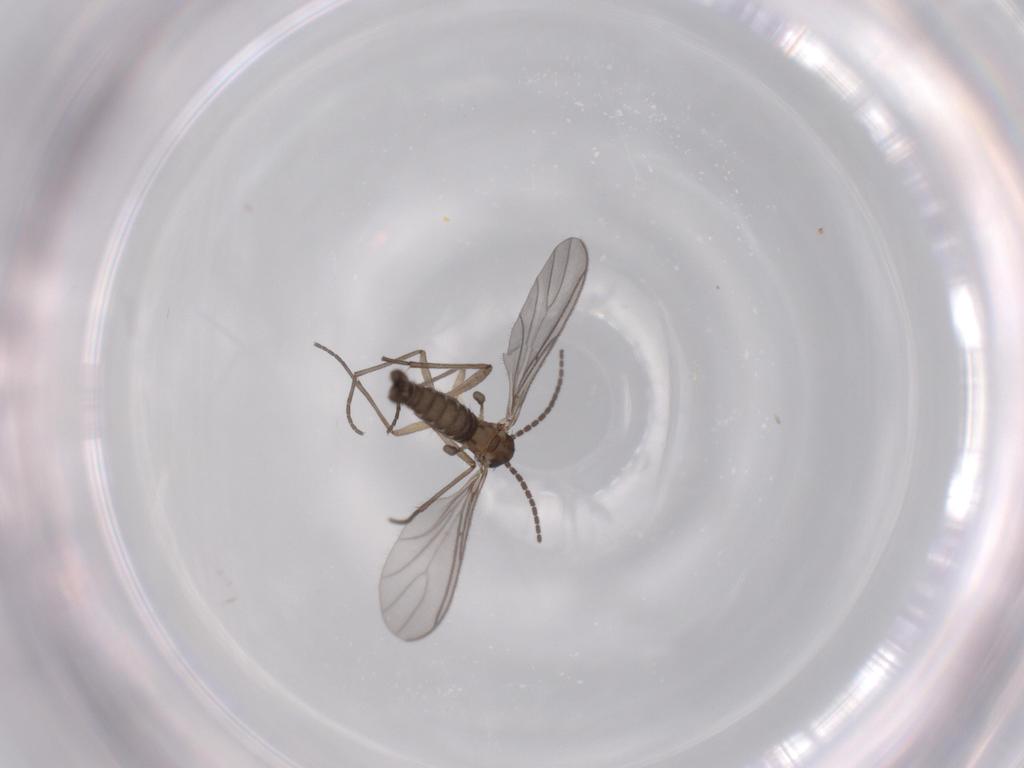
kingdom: Animalia
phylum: Arthropoda
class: Insecta
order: Diptera
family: Sciaridae
